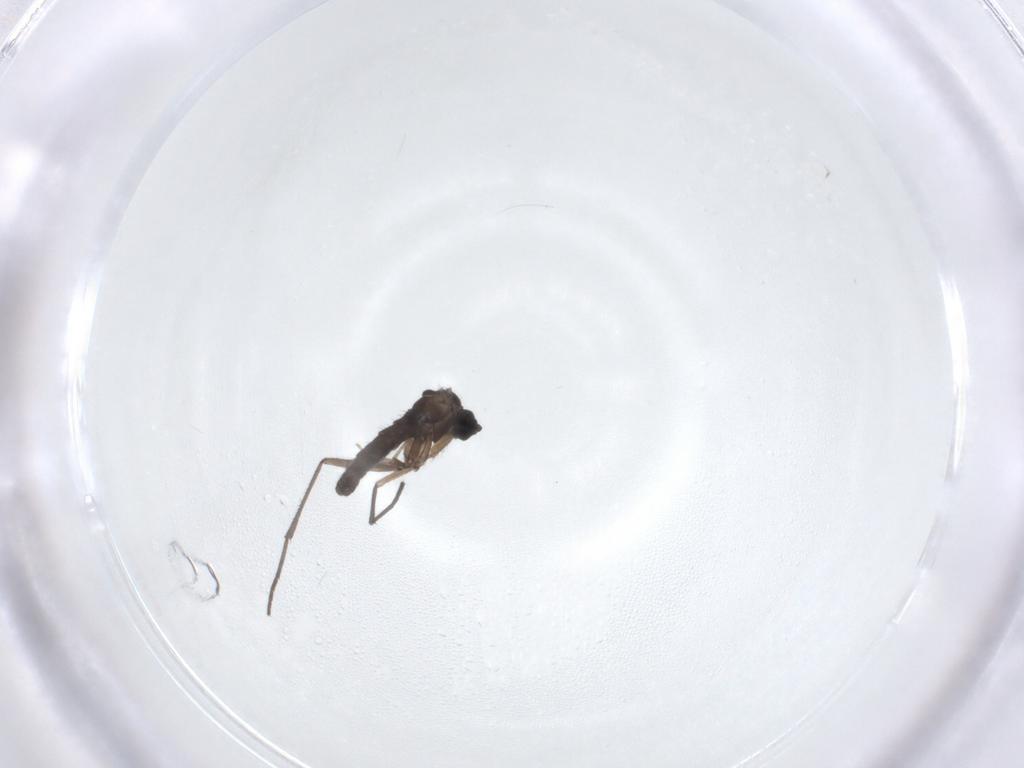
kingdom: Animalia
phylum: Arthropoda
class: Insecta
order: Diptera
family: Sciaridae
